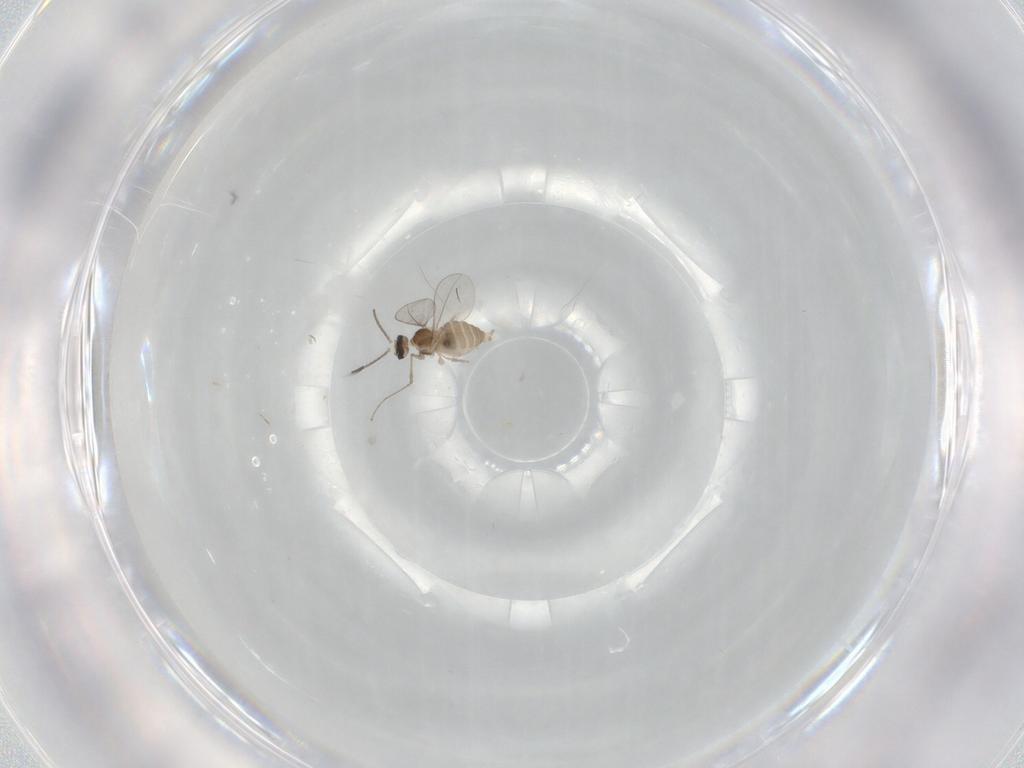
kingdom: Animalia
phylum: Arthropoda
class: Insecta
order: Diptera
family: Cecidomyiidae
